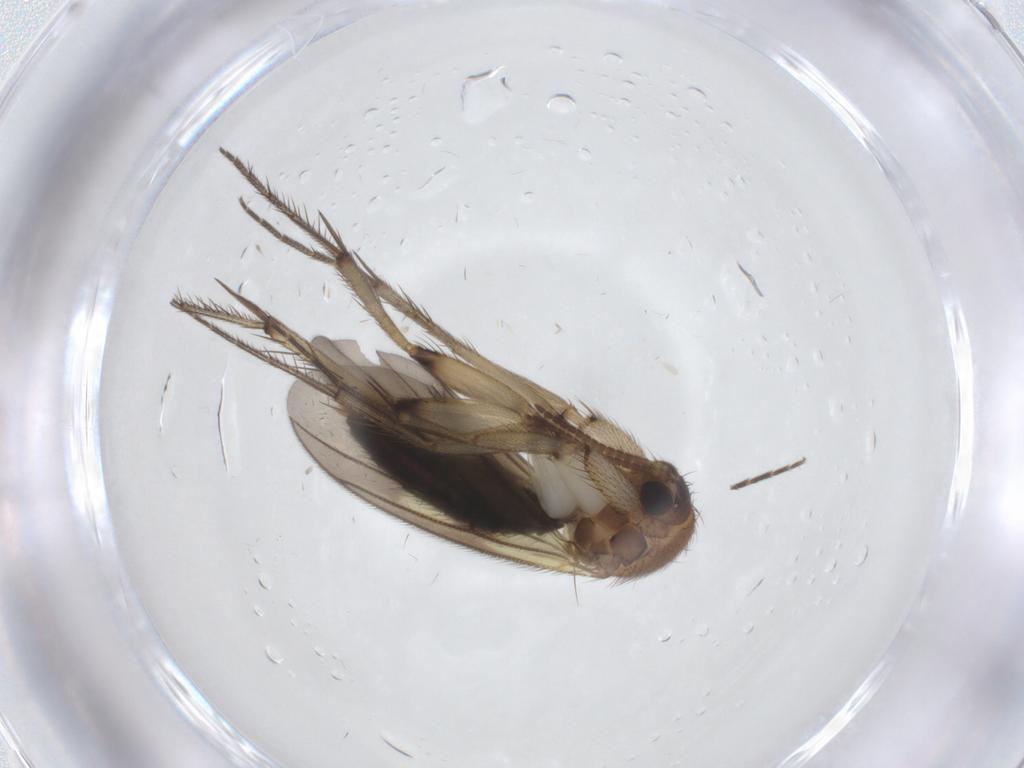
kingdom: Animalia
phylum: Arthropoda
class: Insecta
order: Diptera
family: Mycetophilidae
